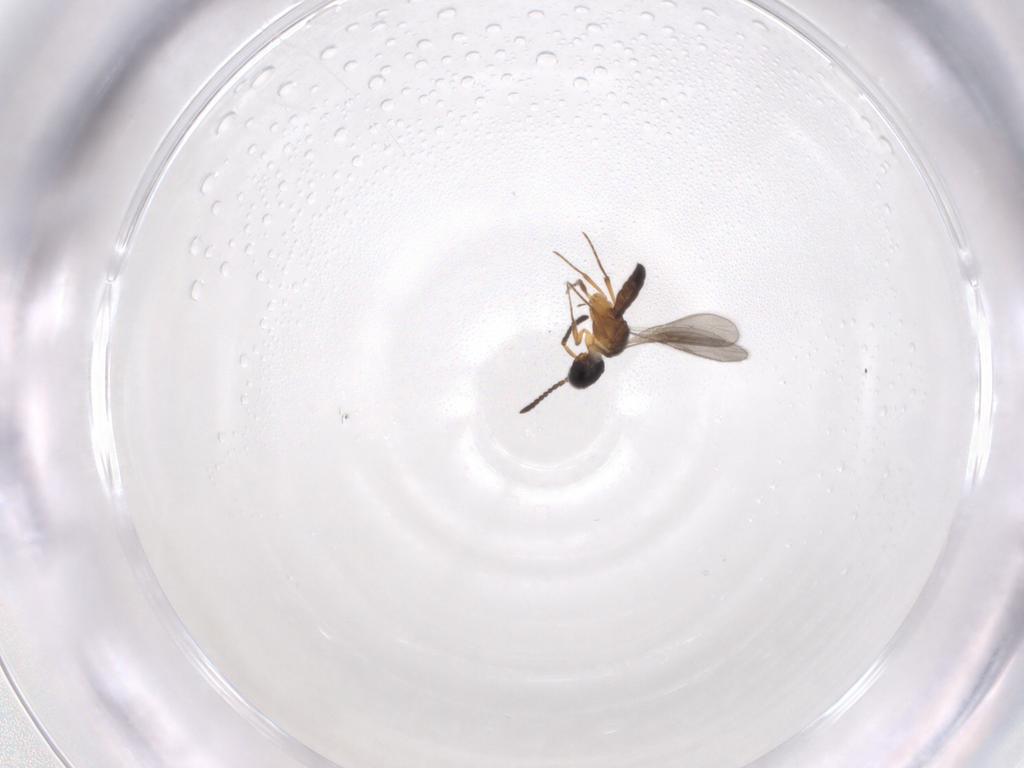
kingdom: Animalia
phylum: Arthropoda
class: Insecta
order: Hymenoptera
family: Platygastridae
